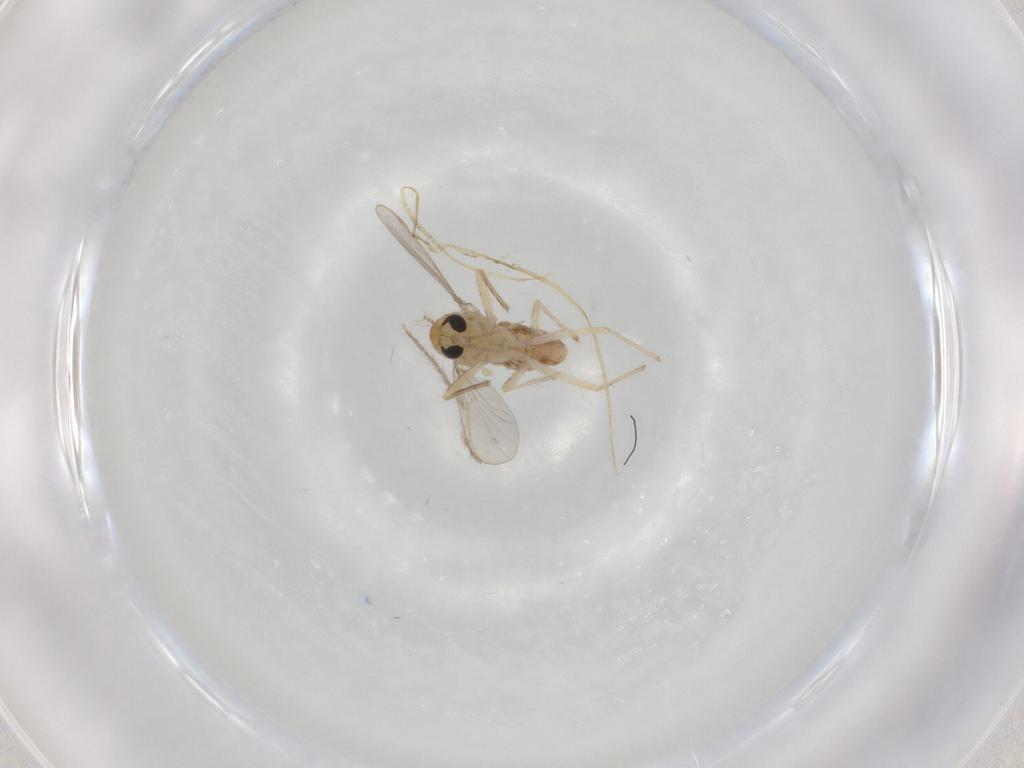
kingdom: Animalia
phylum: Arthropoda
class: Insecta
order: Diptera
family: Chironomidae
